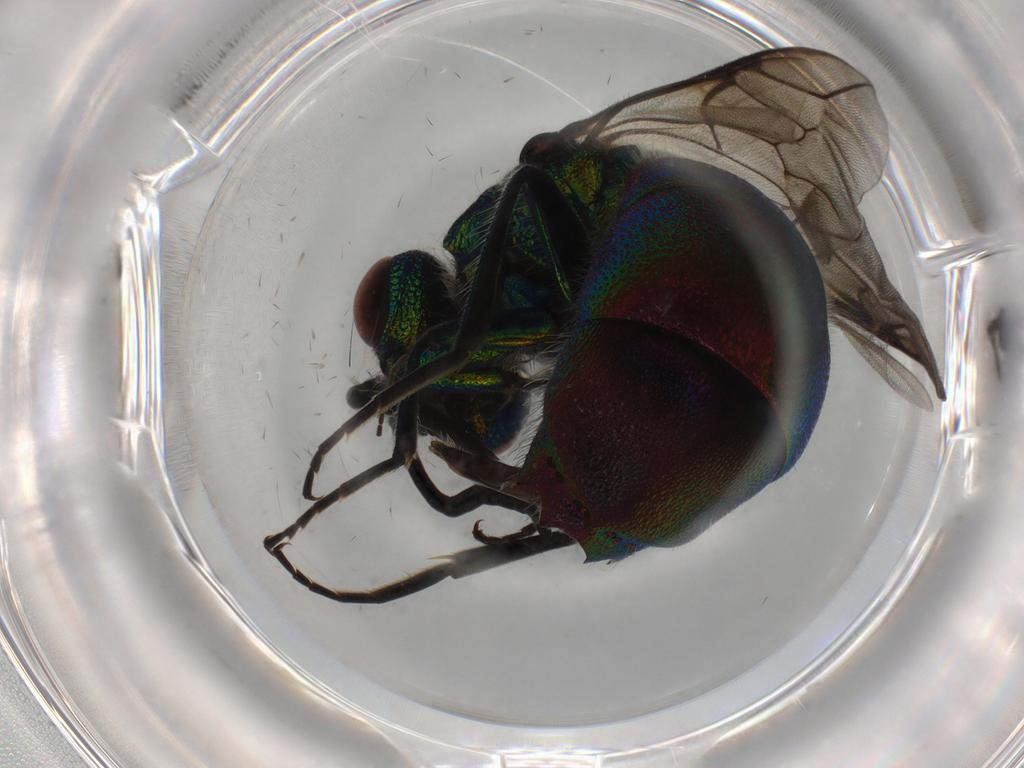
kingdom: Animalia
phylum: Arthropoda
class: Insecta
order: Hymenoptera
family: Chrysididae
